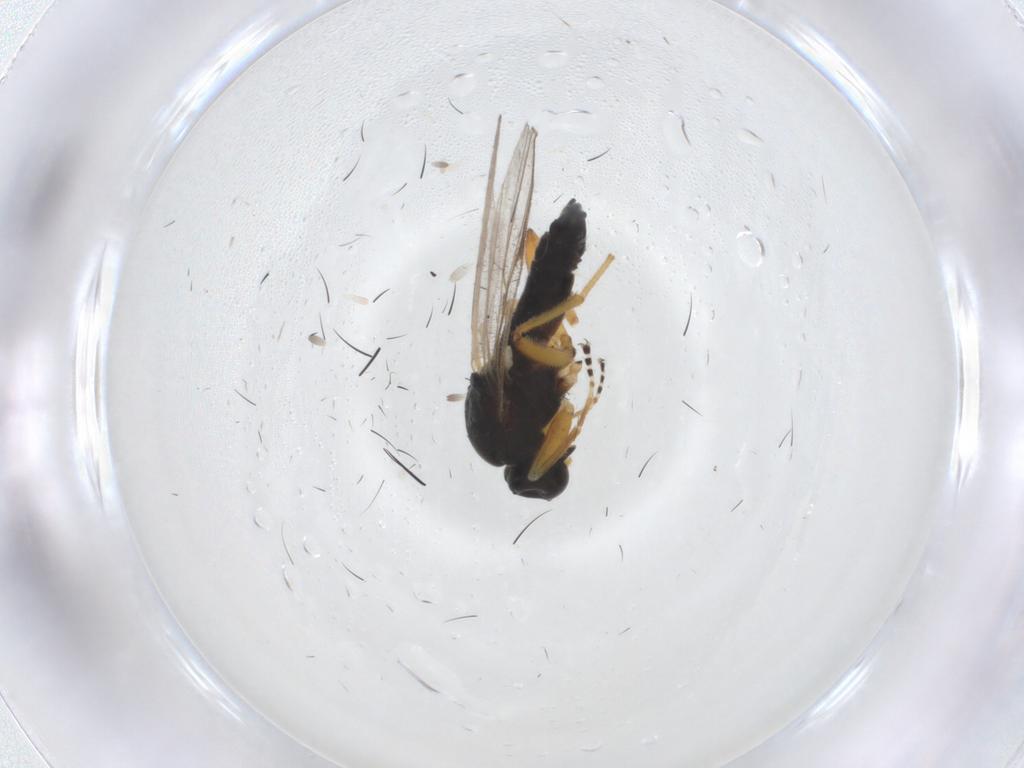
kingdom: Animalia
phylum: Arthropoda
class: Insecta
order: Diptera
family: Hybotidae
